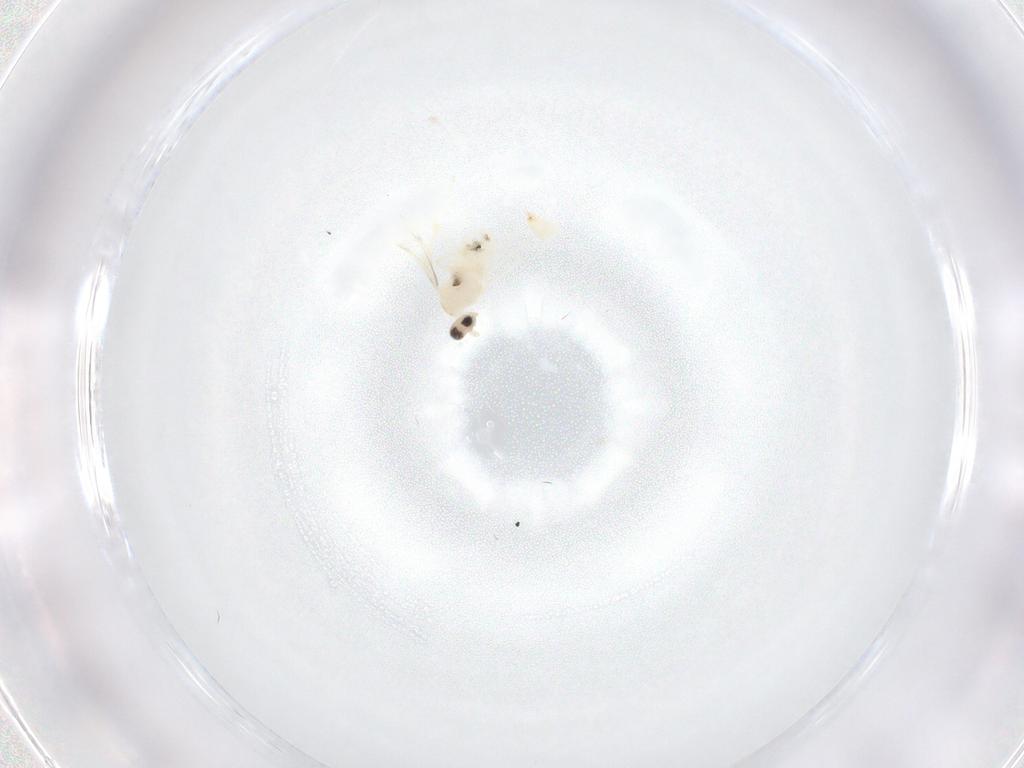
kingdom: Animalia
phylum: Arthropoda
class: Insecta
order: Diptera
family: Cecidomyiidae
